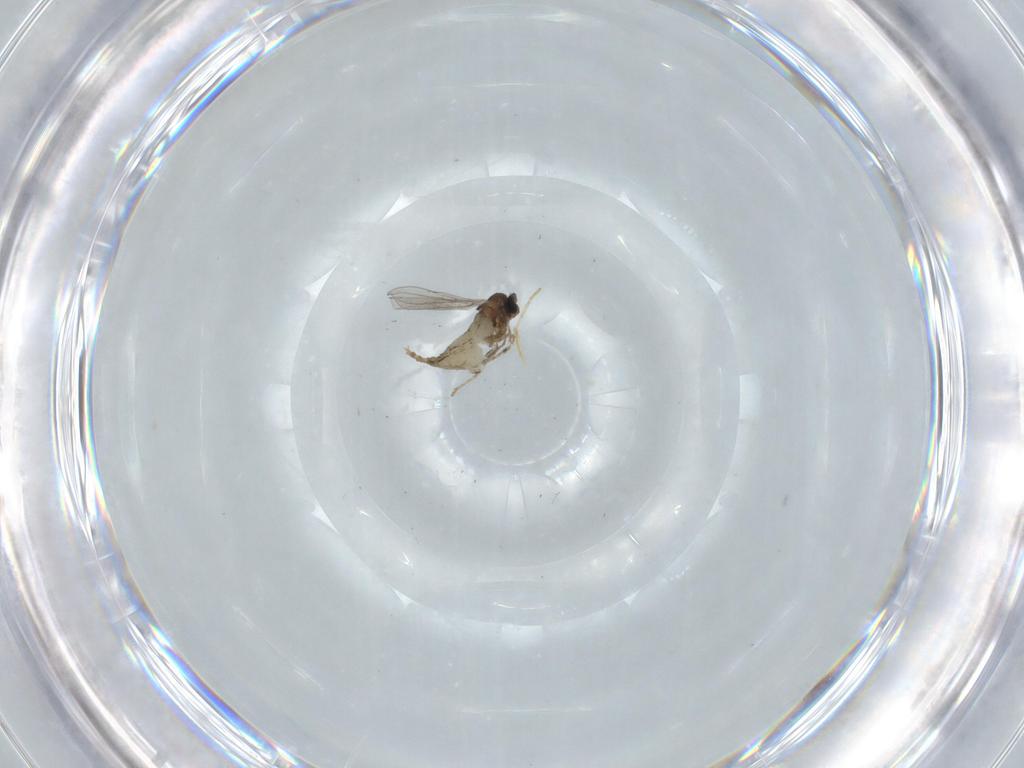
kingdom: Animalia
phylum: Arthropoda
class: Insecta
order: Diptera
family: Cecidomyiidae
